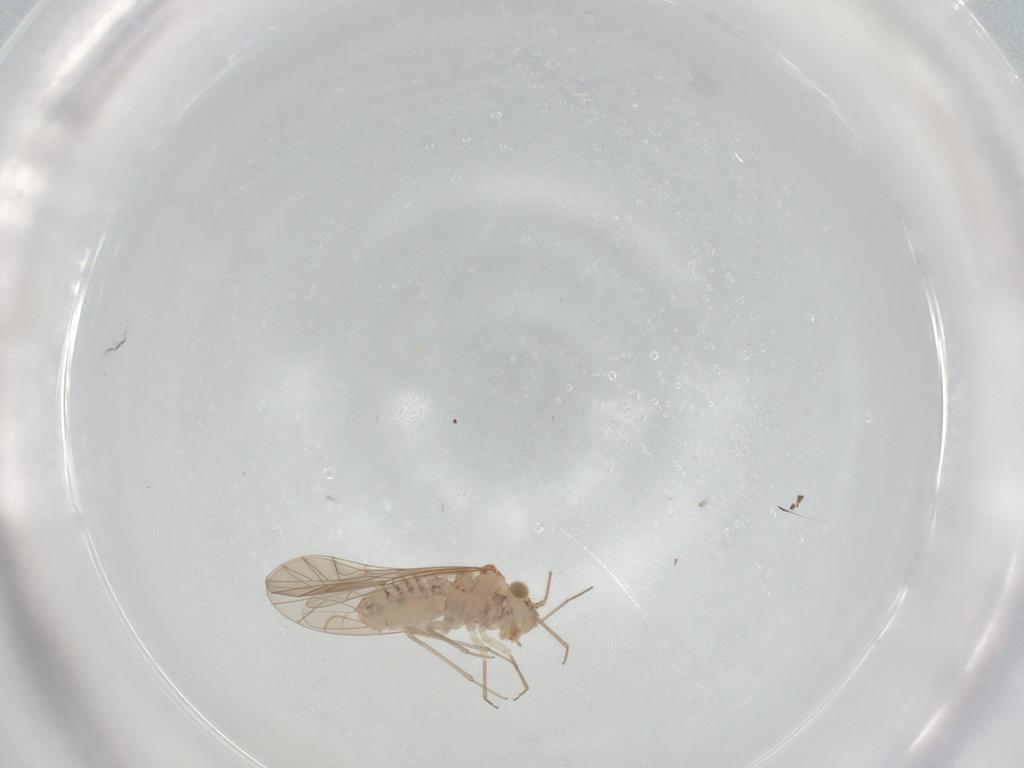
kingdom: Animalia
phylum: Arthropoda
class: Insecta
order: Psocodea
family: Lachesillidae
